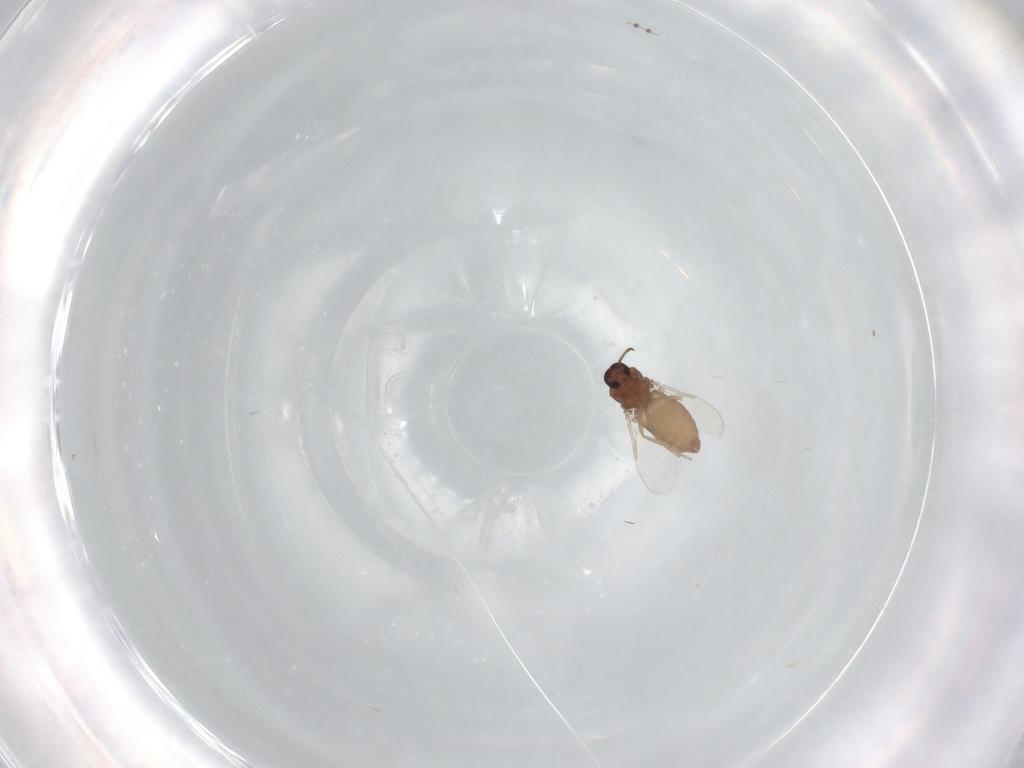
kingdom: Animalia
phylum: Arthropoda
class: Insecta
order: Diptera
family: Ceratopogonidae
